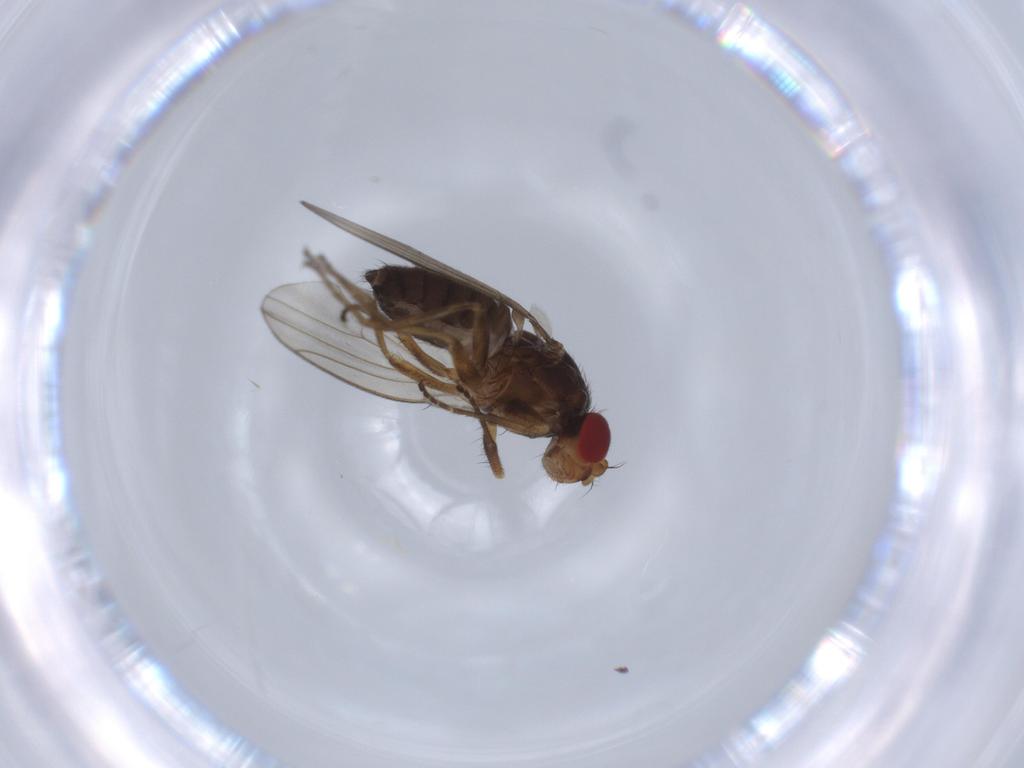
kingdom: Animalia
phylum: Arthropoda
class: Insecta
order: Diptera
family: Drosophilidae
